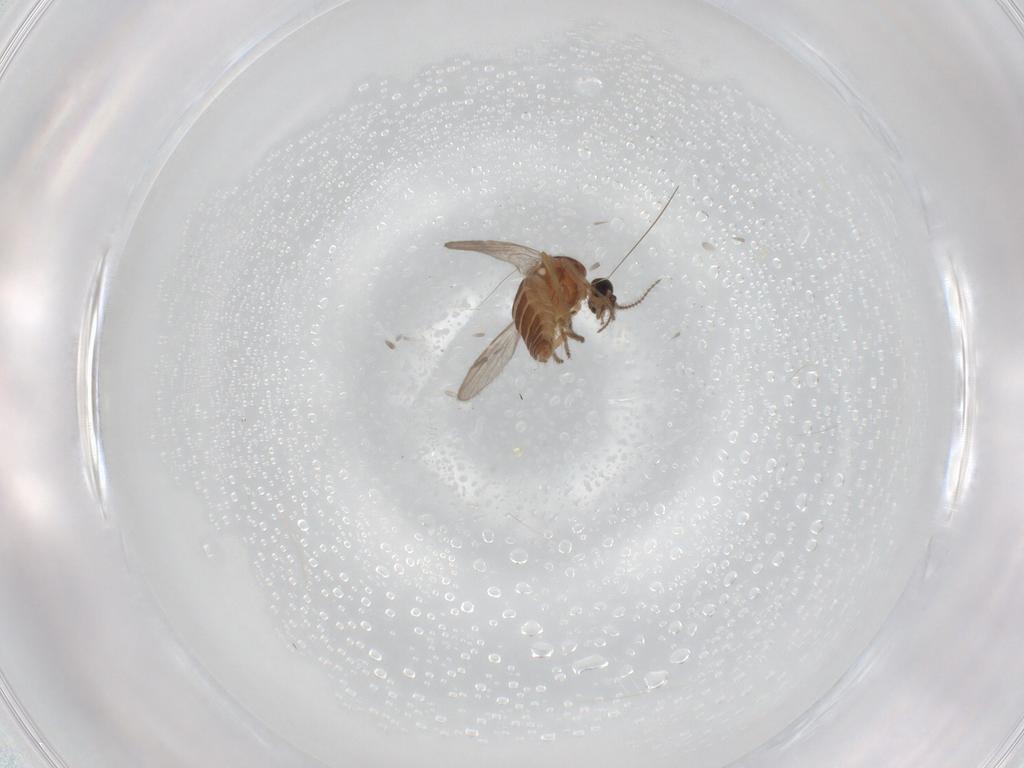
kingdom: Animalia
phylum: Arthropoda
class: Insecta
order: Diptera
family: Ceratopogonidae
